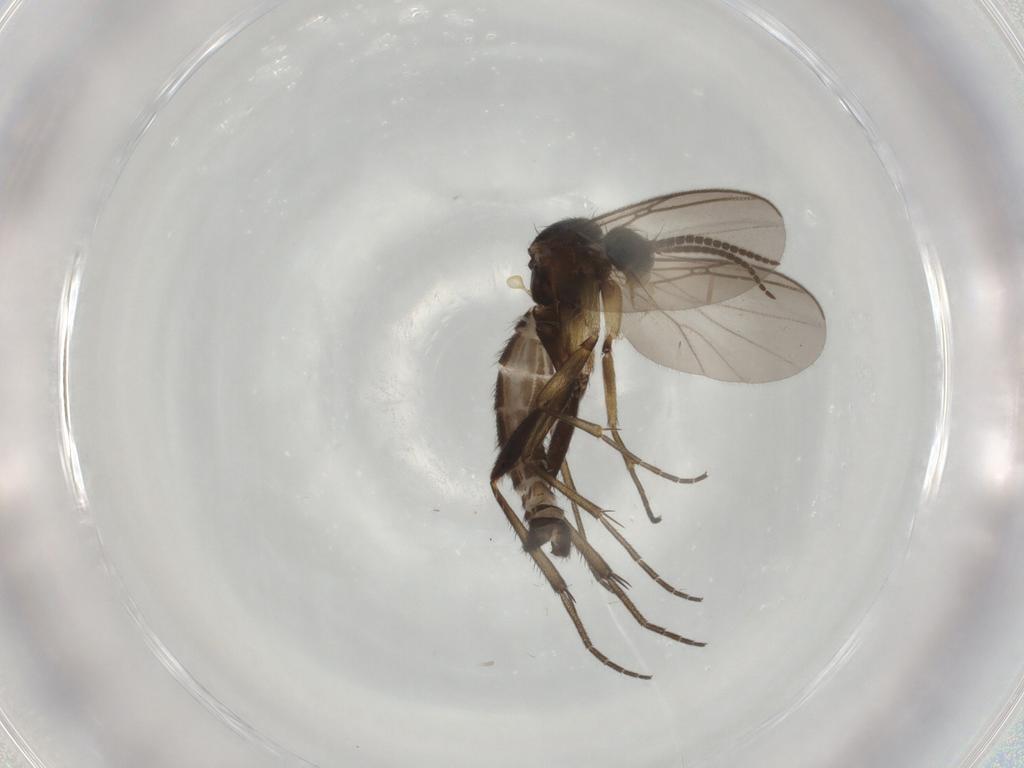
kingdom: Animalia
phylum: Arthropoda
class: Insecta
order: Diptera
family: Mycetophilidae
